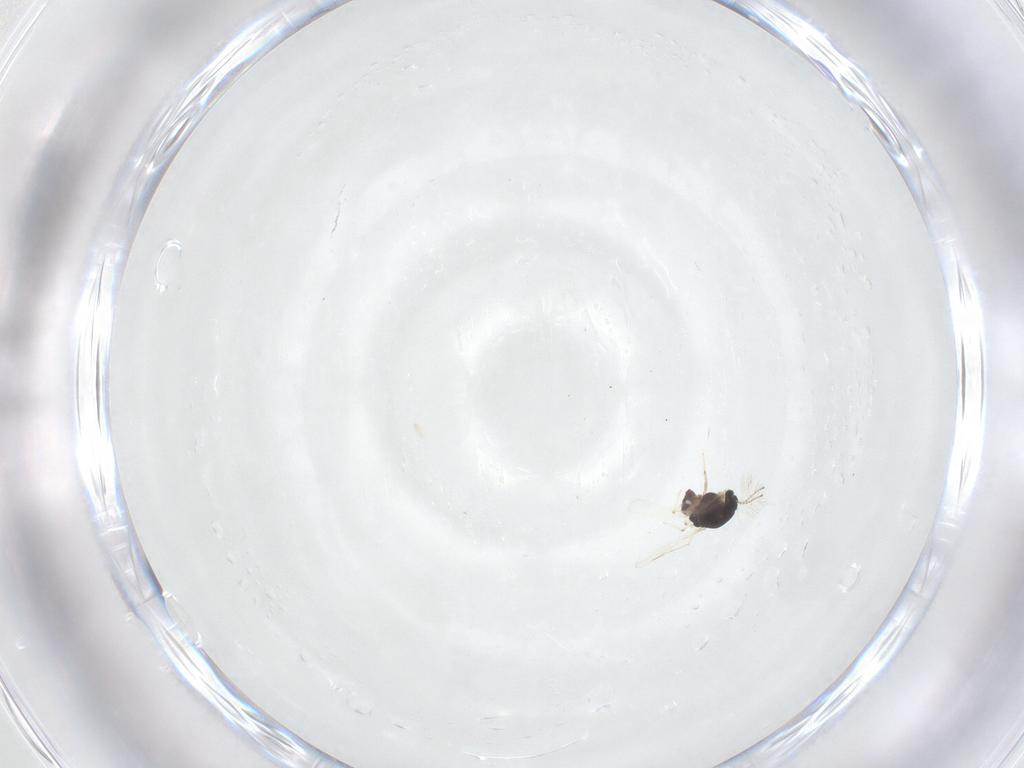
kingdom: Animalia
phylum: Arthropoda
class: Insecta
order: Diptera
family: Chironomidae
